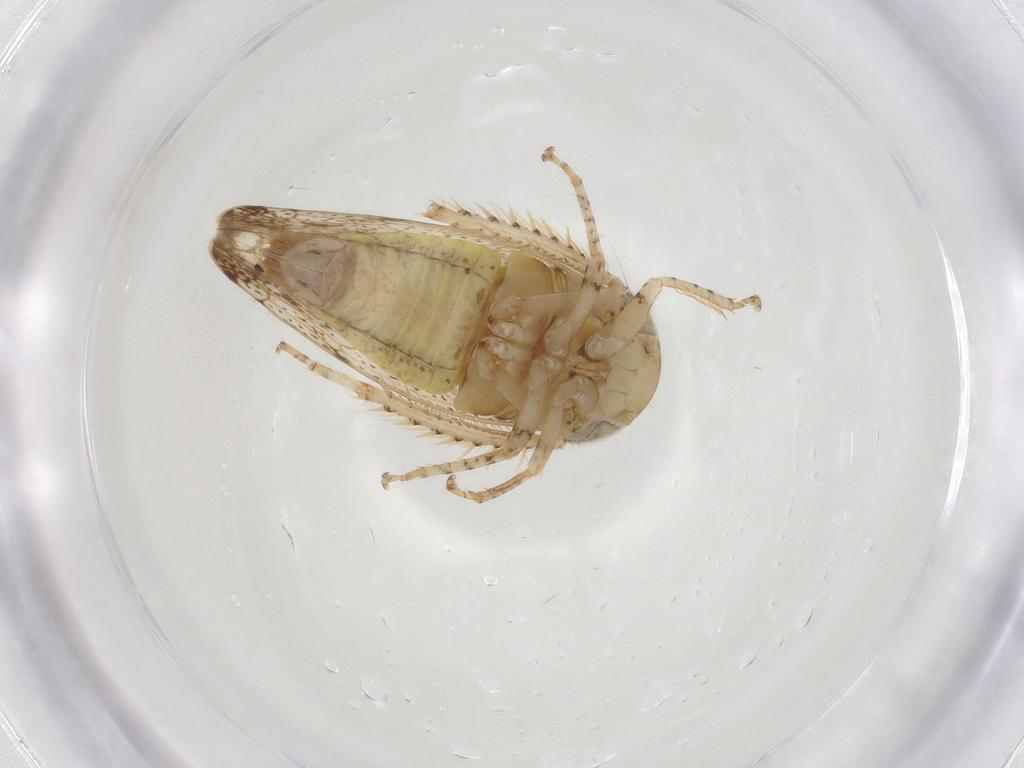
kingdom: Animalia
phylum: Arthropoda
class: Insecta
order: Hemiptera
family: Cicadellidae
